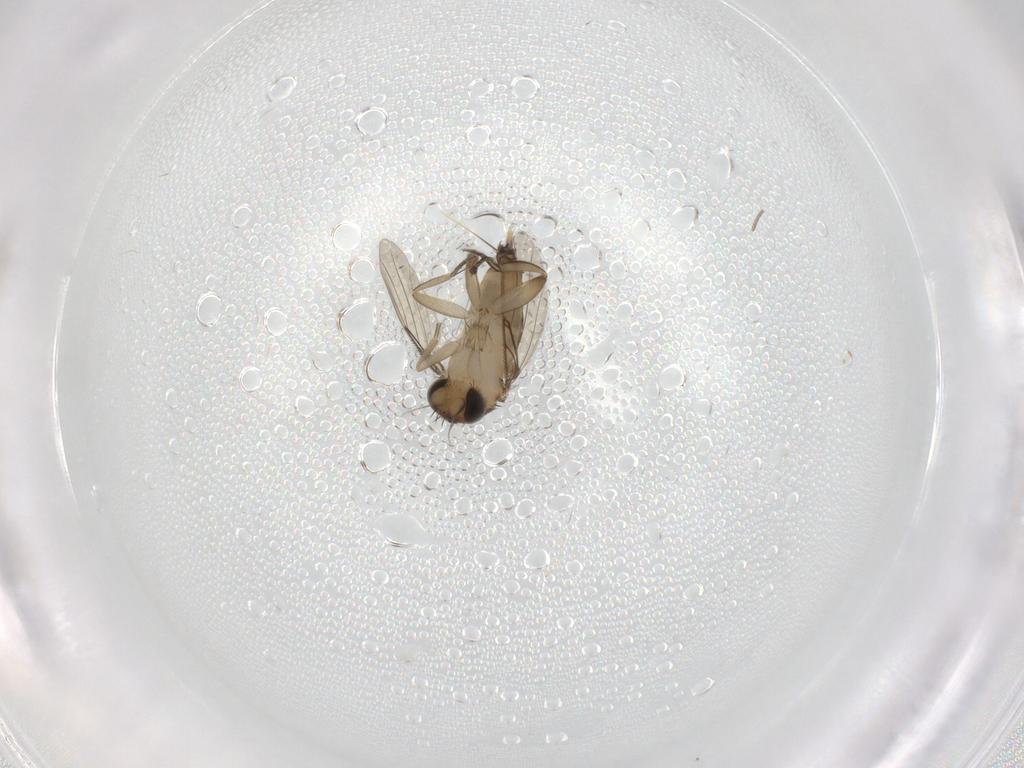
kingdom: Animalia
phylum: Arthropoda
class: Insecta
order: Diptera
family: Phoridae
